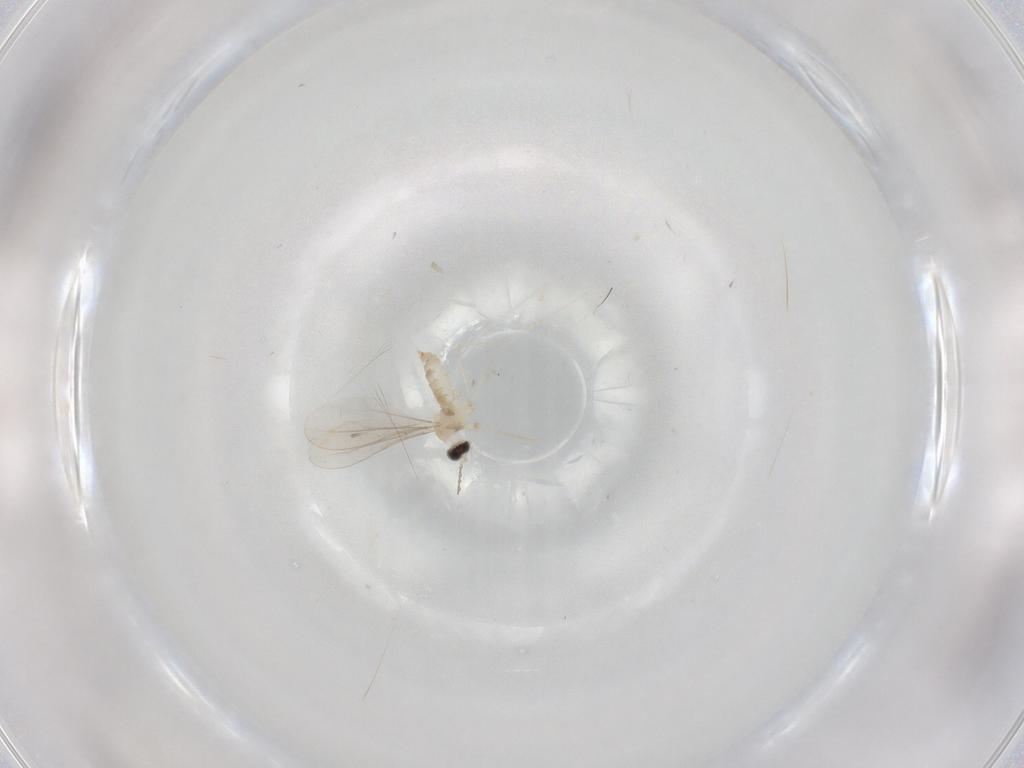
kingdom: Animalia
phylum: Arthropoda
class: Insecta
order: Diptera
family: Cecidomyiidae
